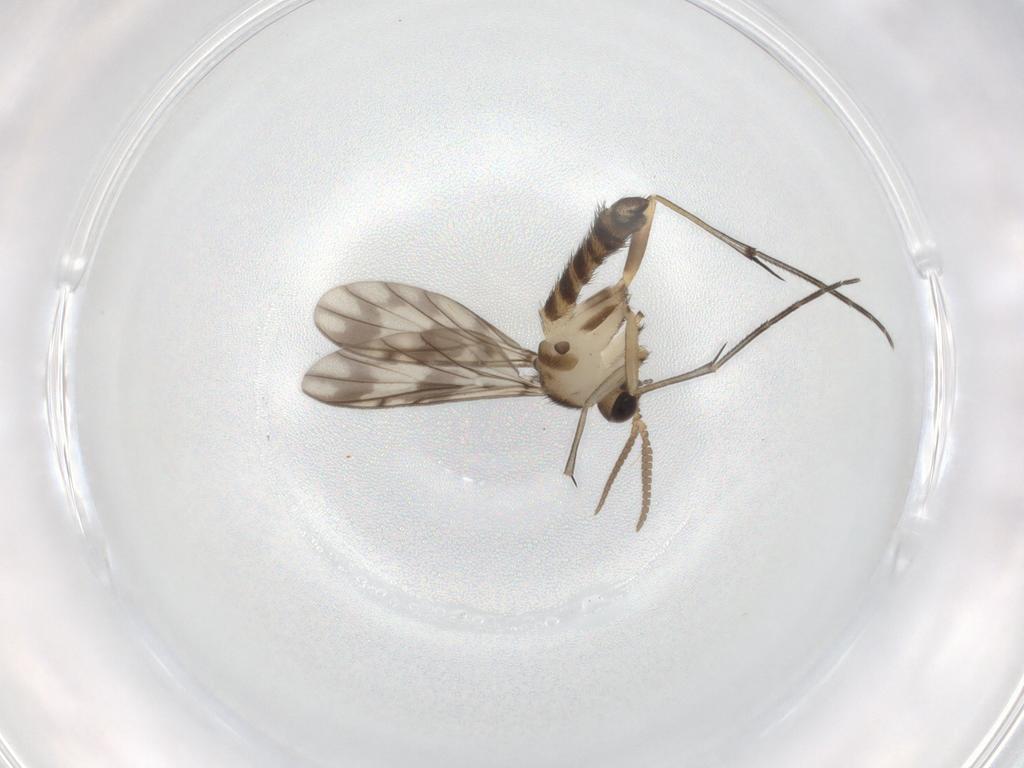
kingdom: Animalia
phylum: Arthropoda
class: Insecta
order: Diptera
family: Keroplatidae
